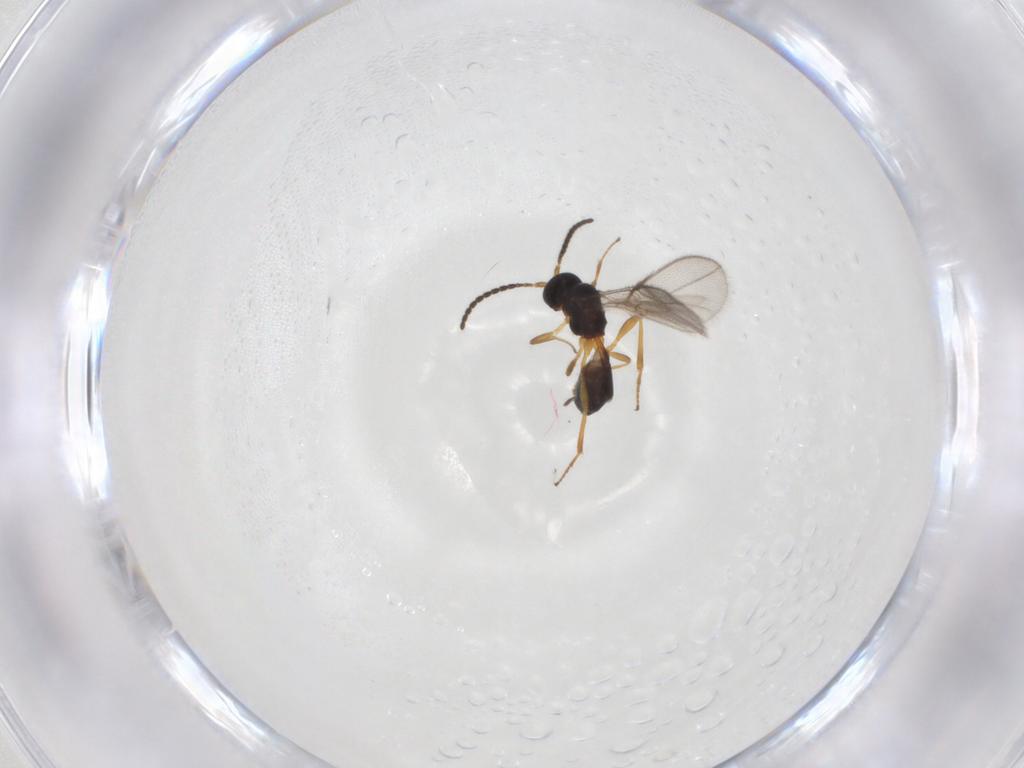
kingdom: Animalia
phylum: Arthropoda
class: Insecta
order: Hymenoptera
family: Braconidae
